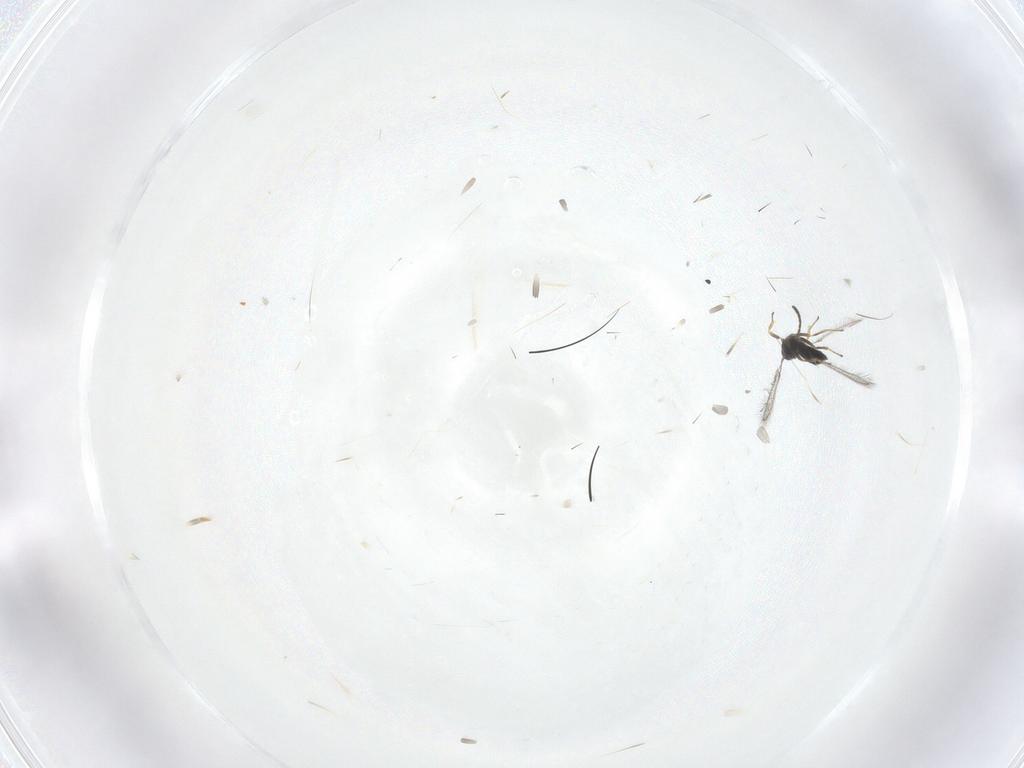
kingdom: Animalia
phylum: Arthropoda
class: Insecta
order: Hymenoptera
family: Mymaridae
